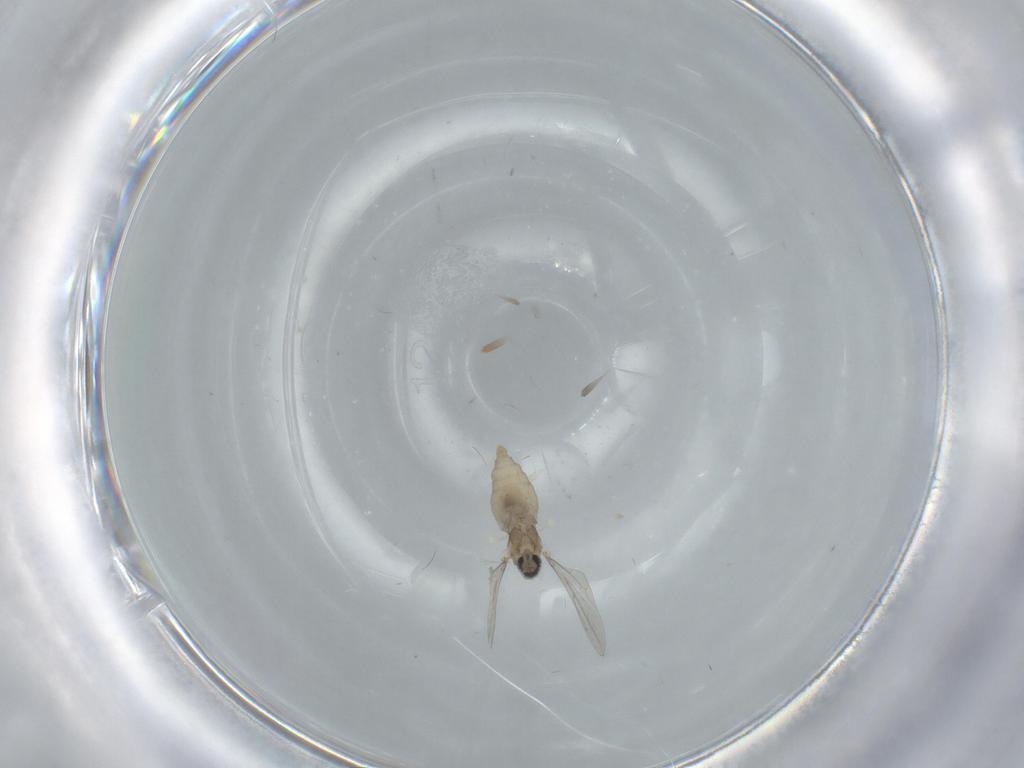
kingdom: Animalia
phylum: Arthropoda
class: Insecta
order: Diptera
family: Cecidomyiidae
